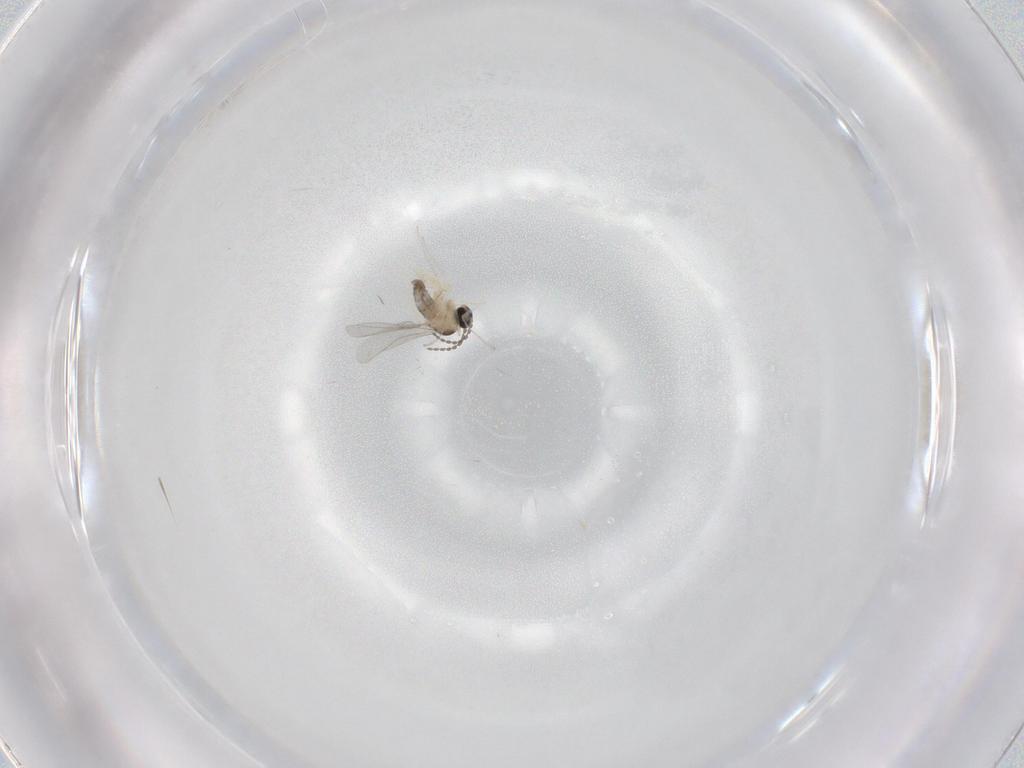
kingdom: Animalia
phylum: Arthropoda
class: Insecta
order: Diptera
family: Cecidomyiidae
